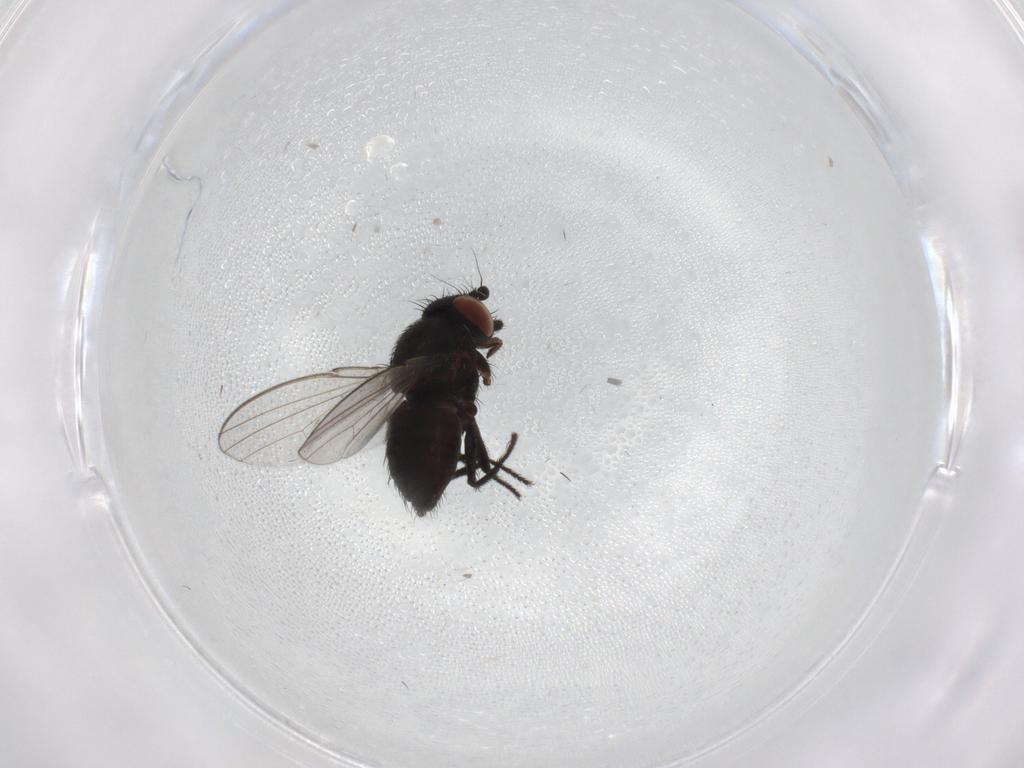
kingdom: Animalia
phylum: Arthropoda
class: Insecta
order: Diptera
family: Milichiidae
